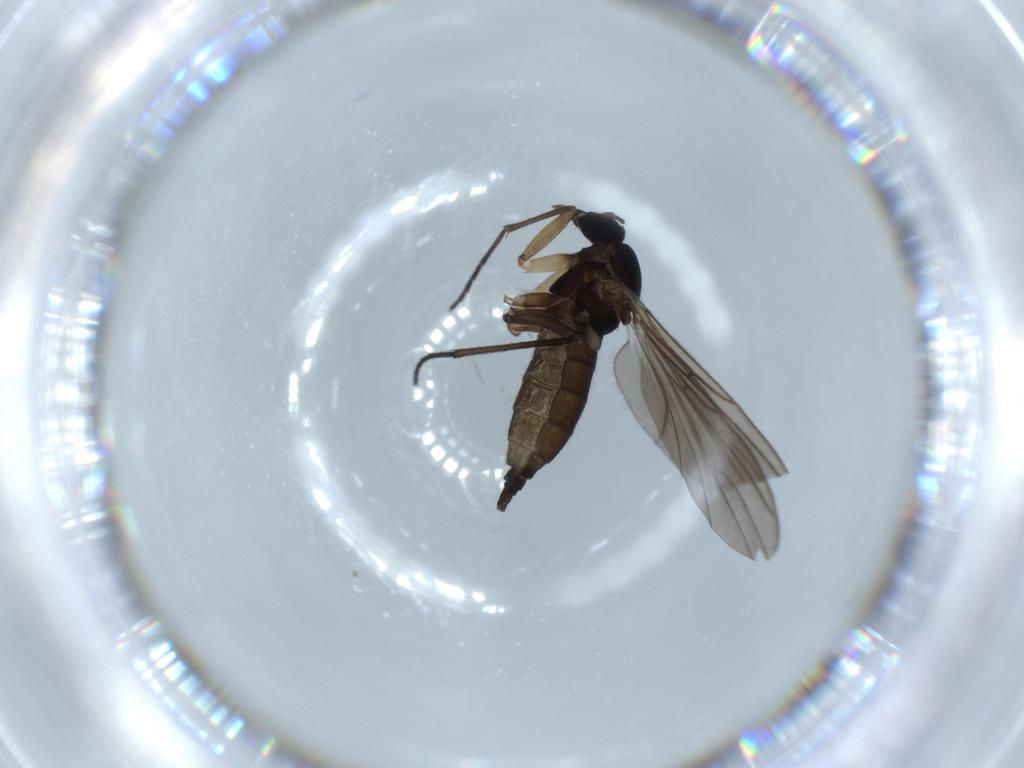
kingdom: Animalia
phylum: Arthropoda
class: Insecta
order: Diptera
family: Sciaridae
